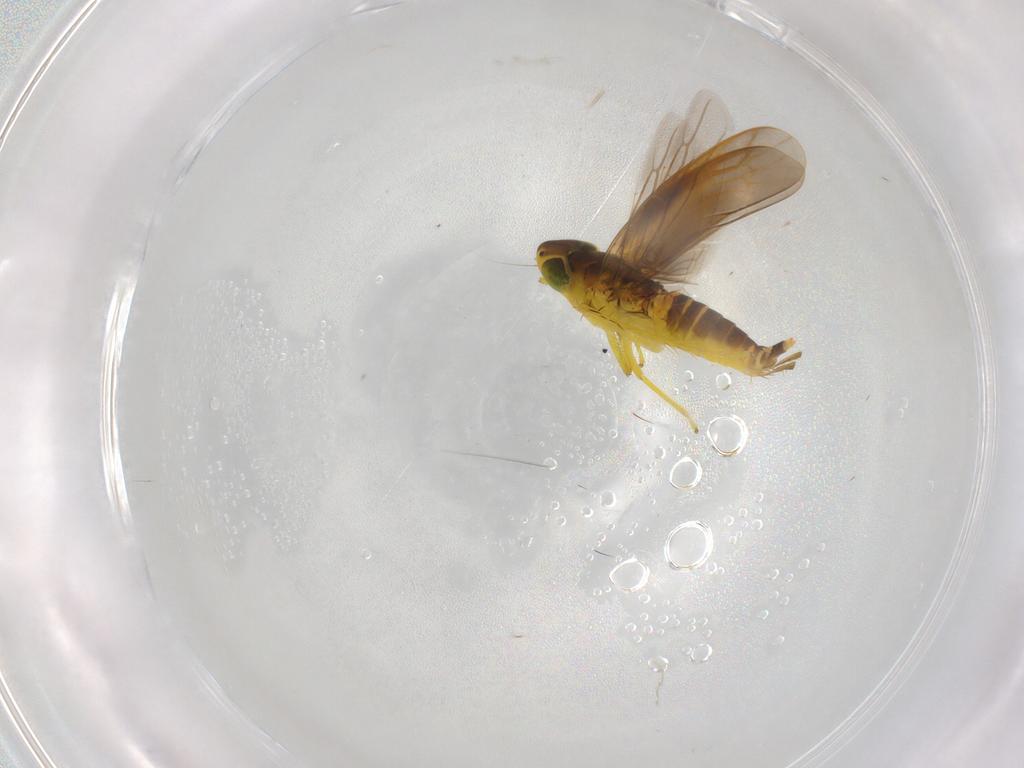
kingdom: Animalia
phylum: Arthropoda
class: Insecta
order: Hemiptera
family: Cicadellidae
